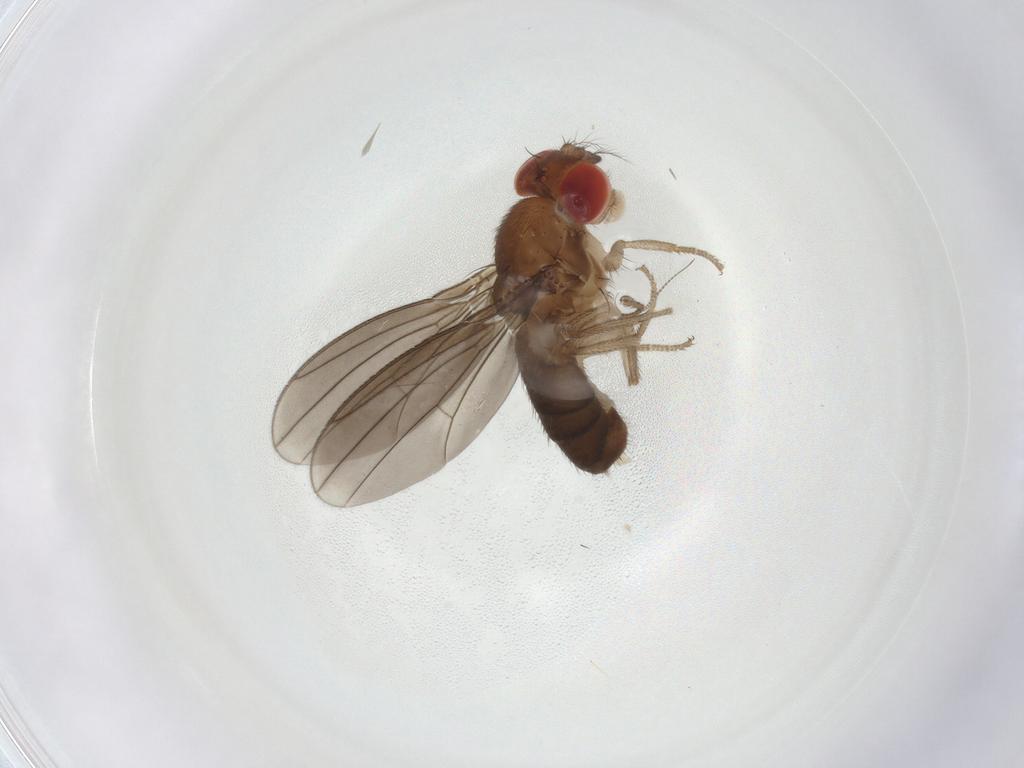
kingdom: Animalia
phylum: Arthropoda
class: Insecta
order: Diptera
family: Drosophilidae
